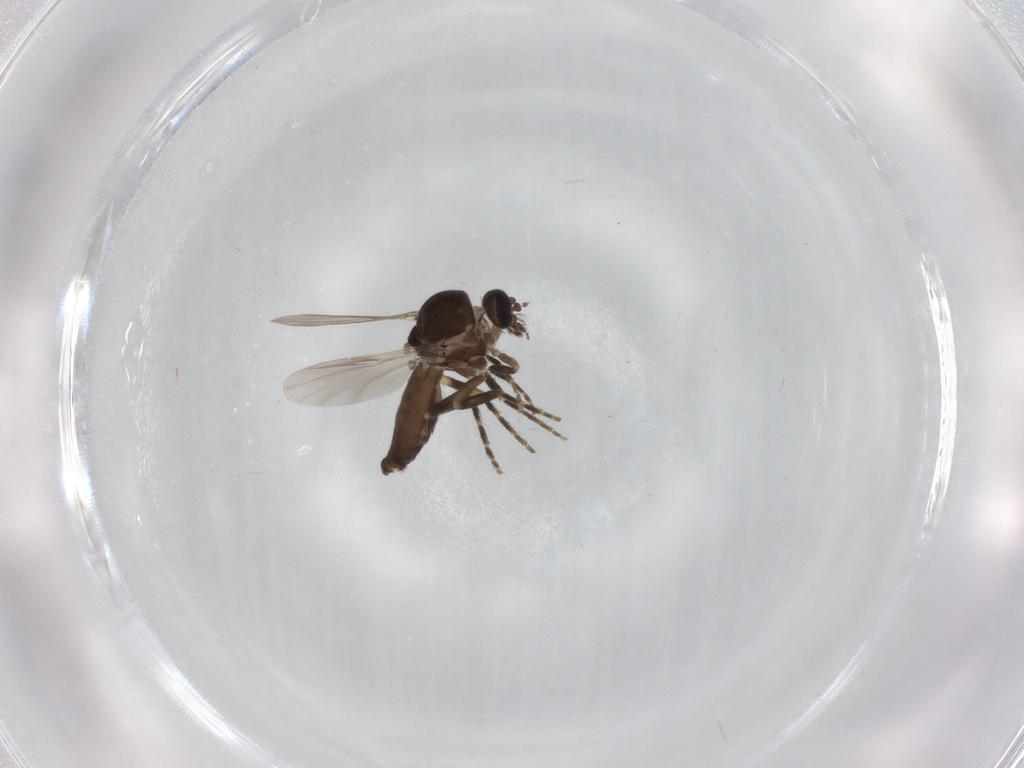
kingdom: Animalia
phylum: Arthropoda
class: Insecta
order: Diptera
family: Ceratopogonidae
